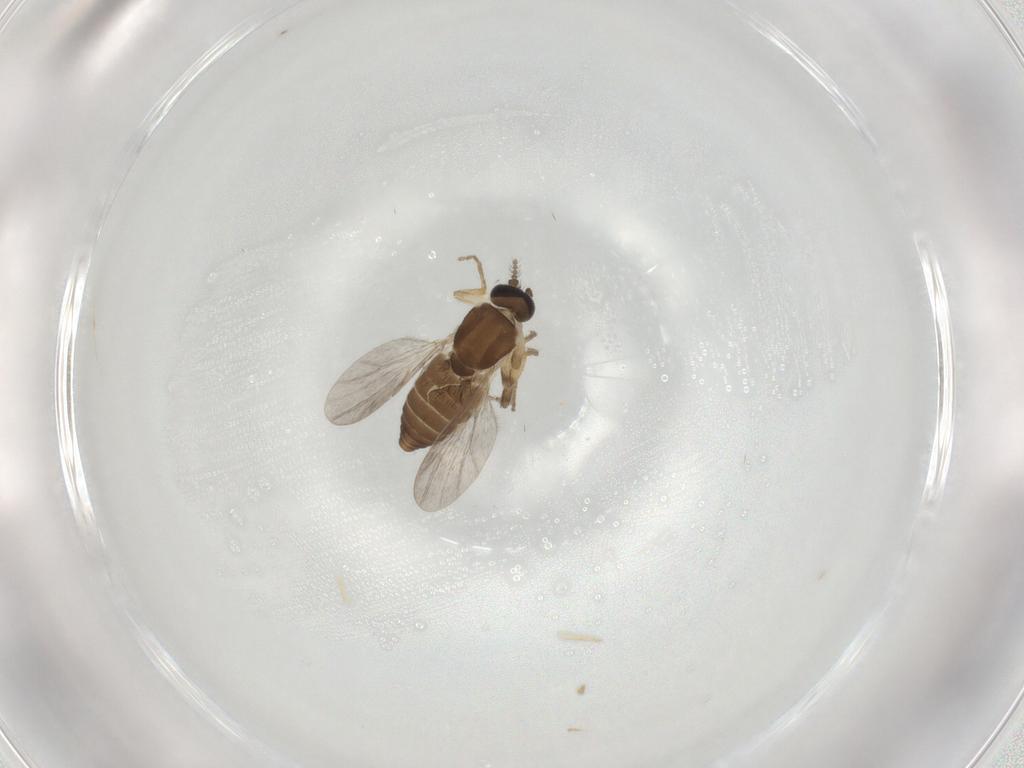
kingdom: Animalia
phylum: Arthropoda
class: Insecta
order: Diptera
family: Ceratopogonidae
